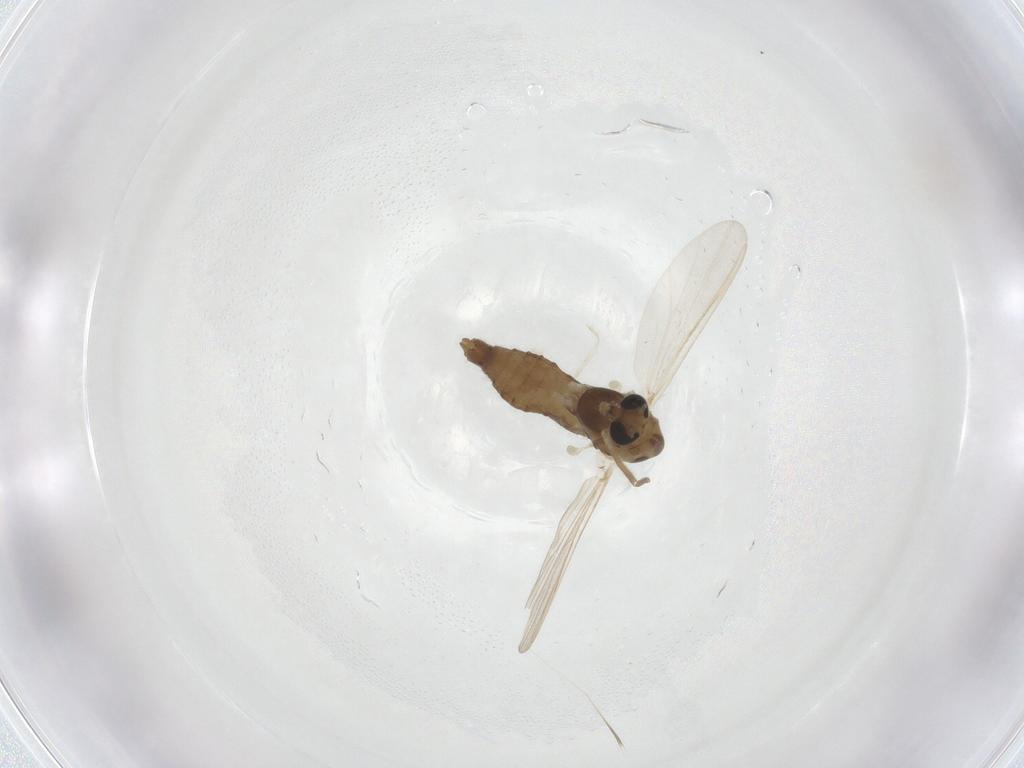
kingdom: Animalia
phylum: Arthropoda
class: Insecta
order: Diptera
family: Chironomidae
